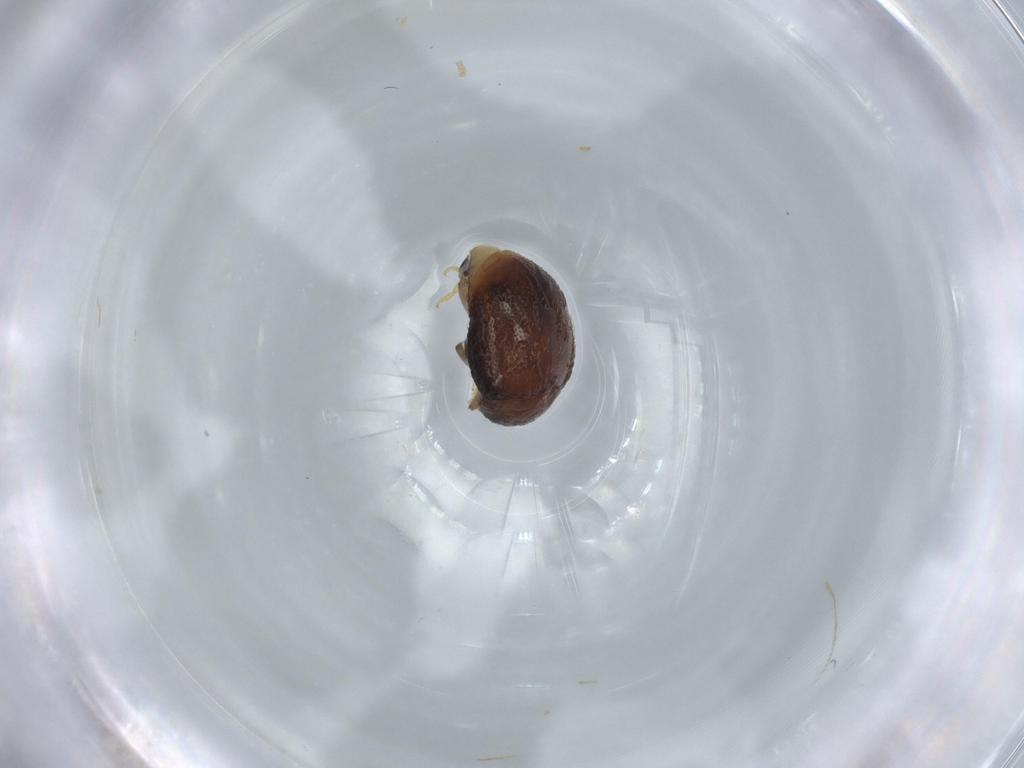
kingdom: Animalia
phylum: Arthropoda
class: Insecta
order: Coleoptera
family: Coccinellidae
